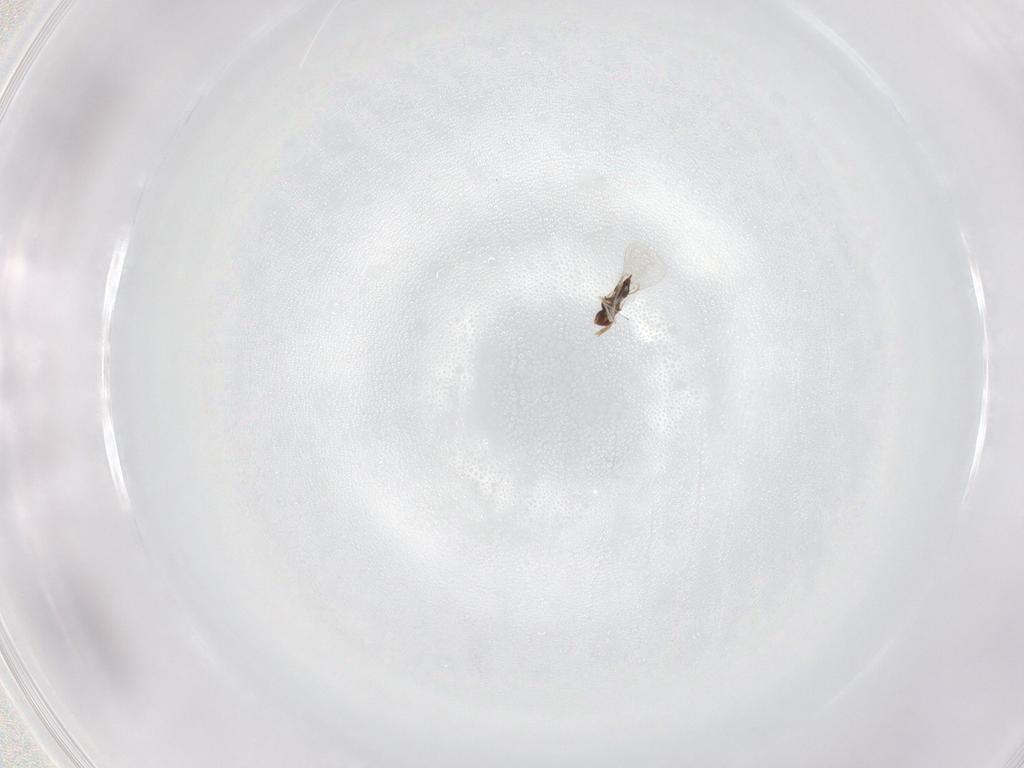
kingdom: Animalia
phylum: Arthropoda
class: Insecta
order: Hymenoptera
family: Trichogrammatidae
